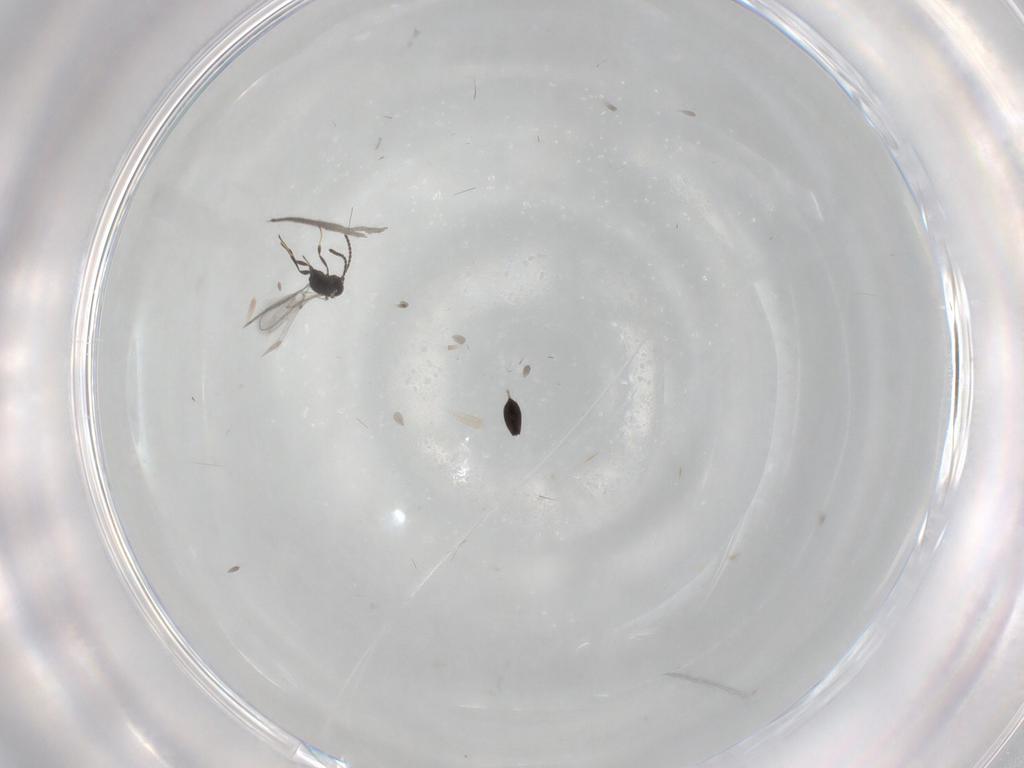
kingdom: Animalia
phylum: Arthropoda
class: Insecta
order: Hymenoptera
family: Scelionidae
